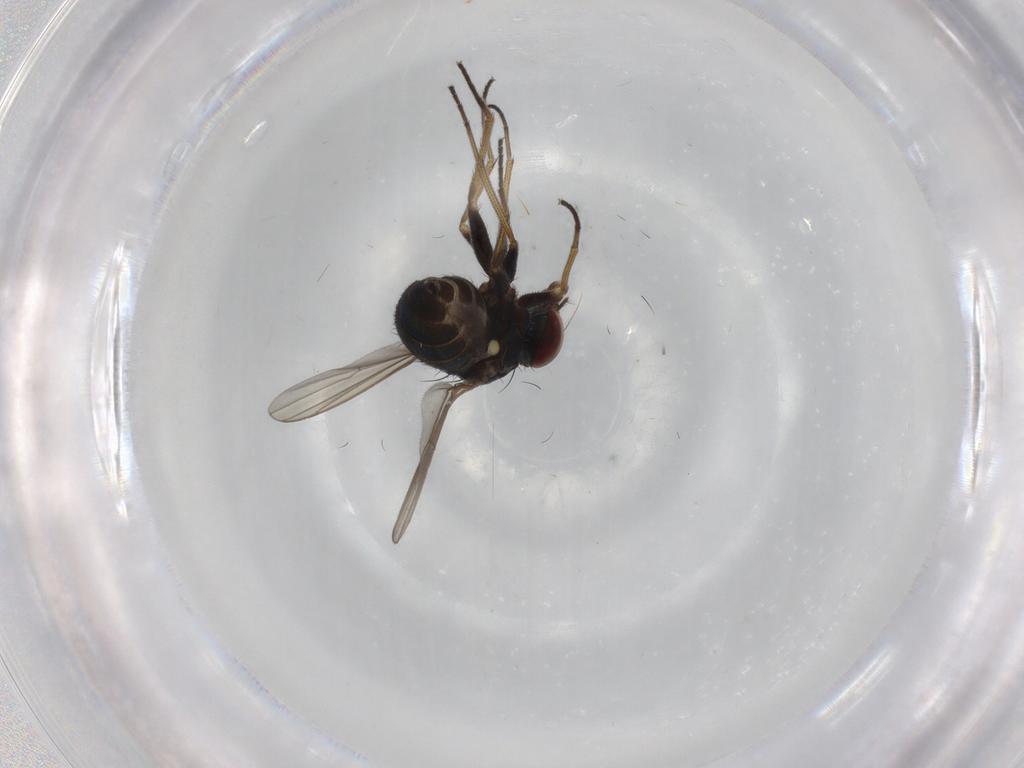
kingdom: Animalia
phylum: Arthropoda
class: Insecta
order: Diptera
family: Dolichopodidae
